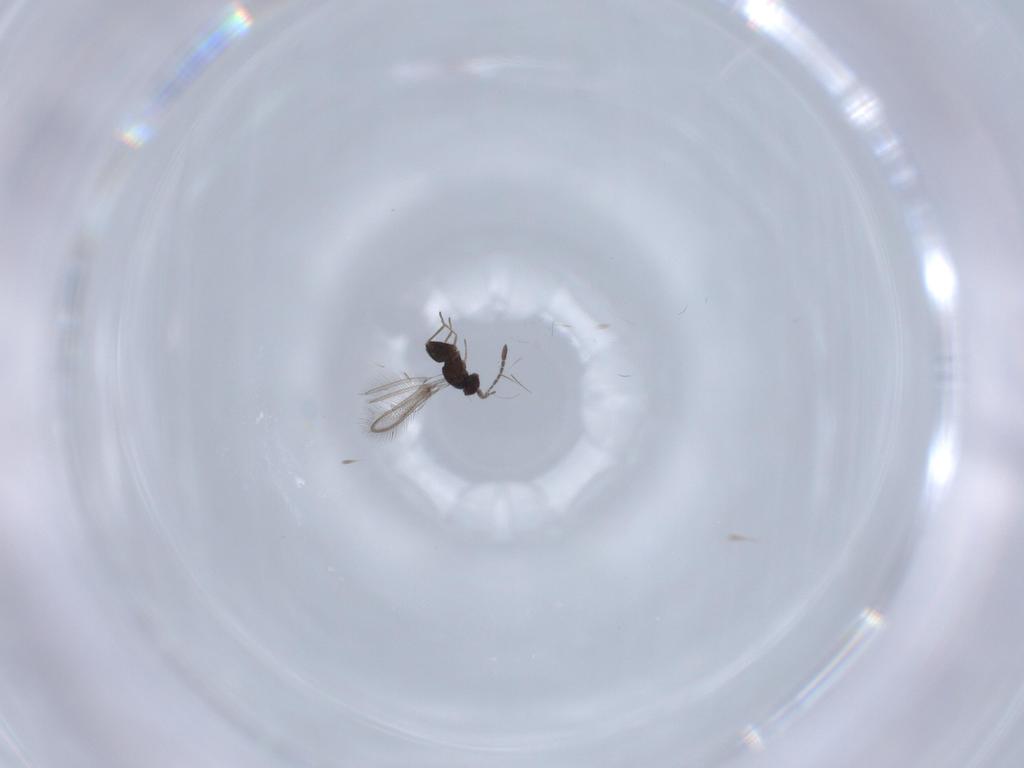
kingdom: Animalia
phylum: Arthropoda
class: Insecta
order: Hymenoptera
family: Mymaridae
